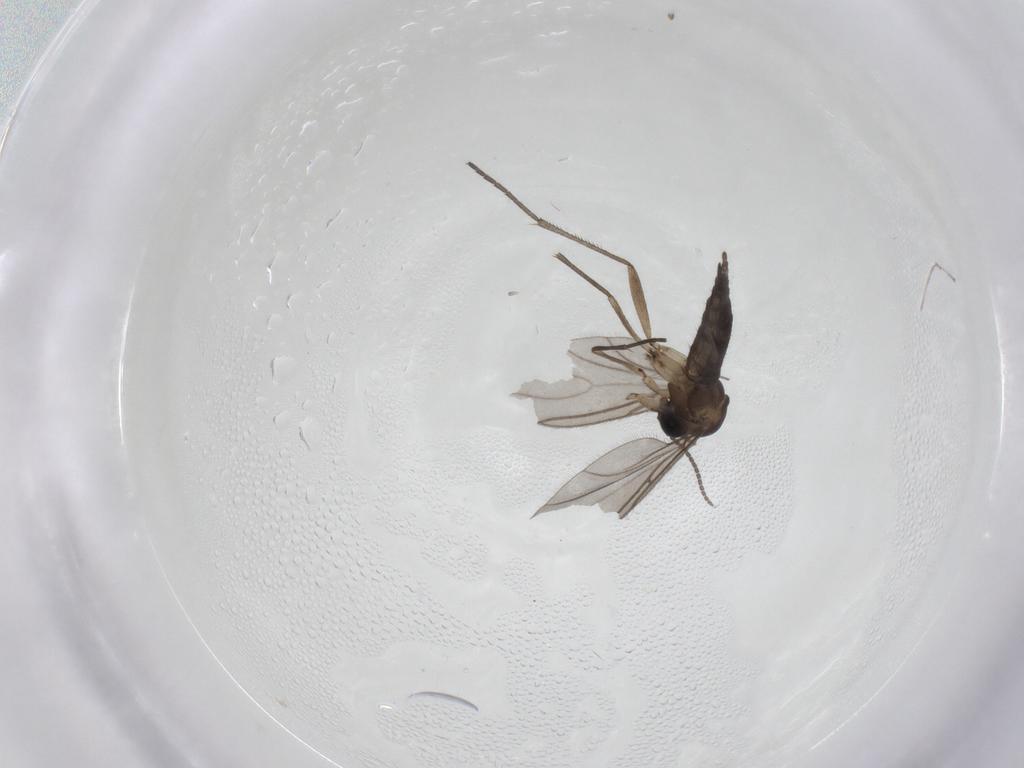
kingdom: Animalia
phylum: Arthropoda
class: Insecta
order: Diptera
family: Sciaridae
